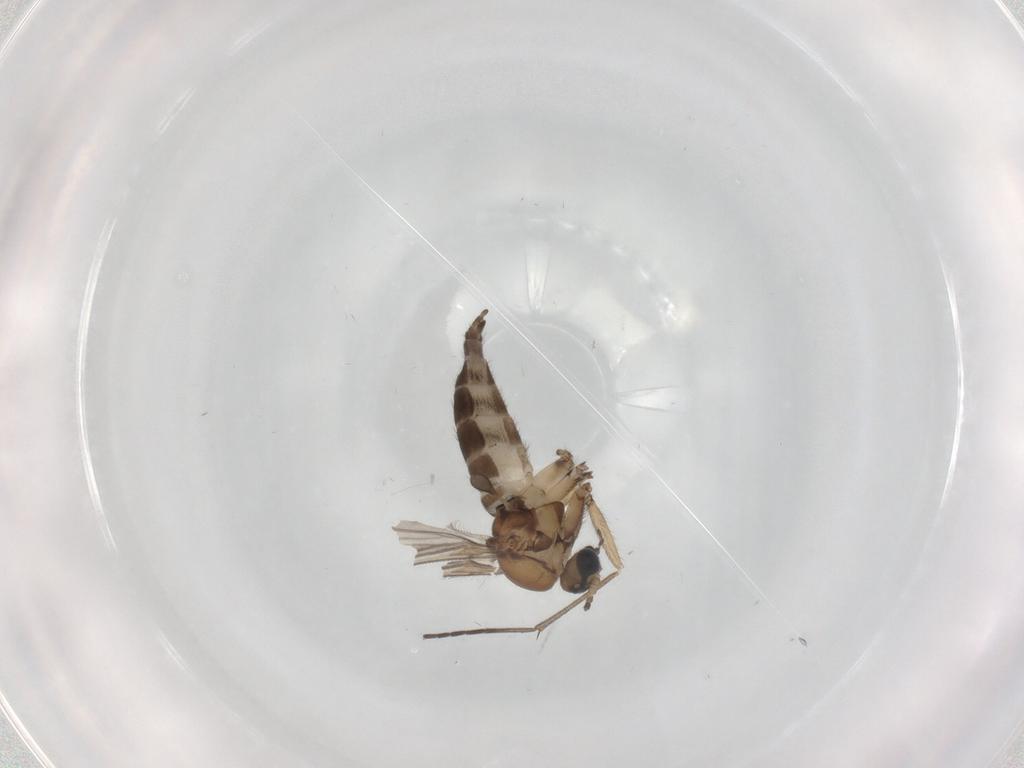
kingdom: Animalia
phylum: Arthropoda
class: Insecta
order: Diptera
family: Sciaridae
